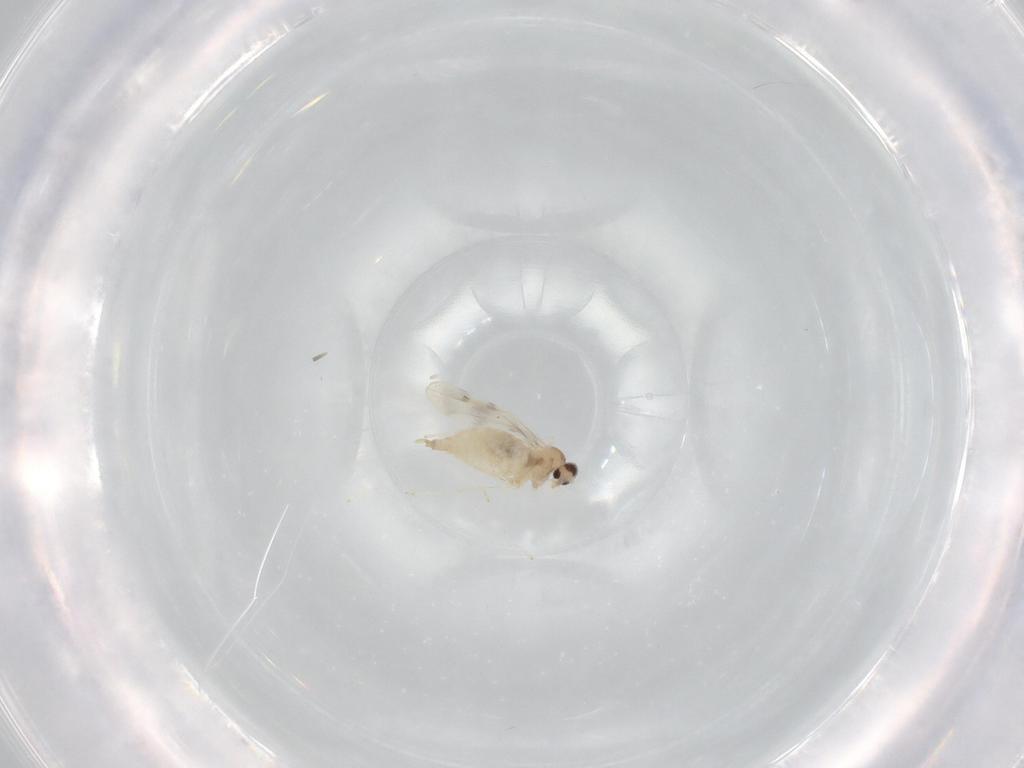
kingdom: Animalia
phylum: Arthropoda
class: Insecta
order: Diptera
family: Cecidomyiidae
